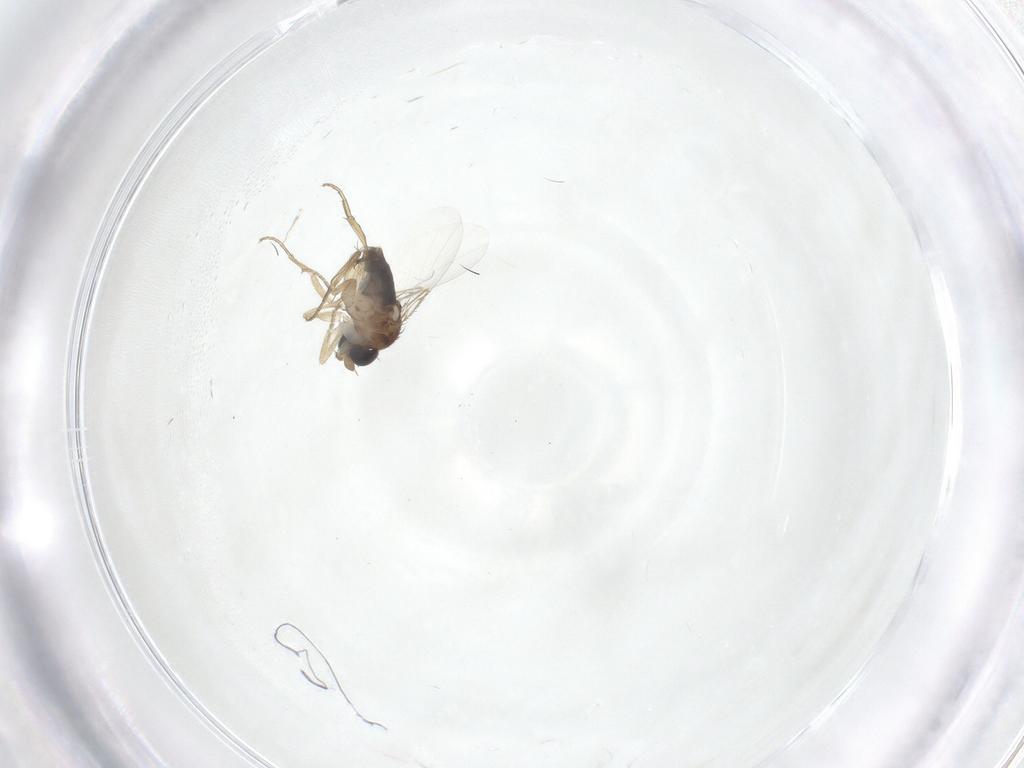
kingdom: Animalia
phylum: Arthropoda
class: Insecta
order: Diptera
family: Phoridae
